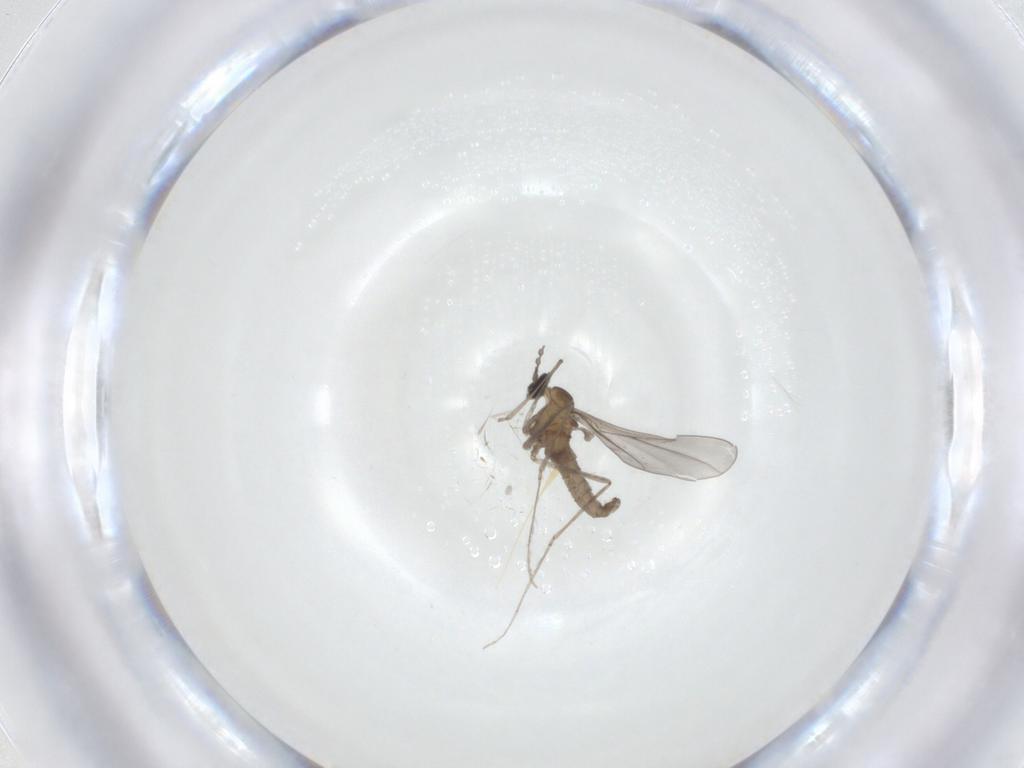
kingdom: Animalia
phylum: Arthropoda
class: Insecta
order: Diptera
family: Cecidomyiidae
